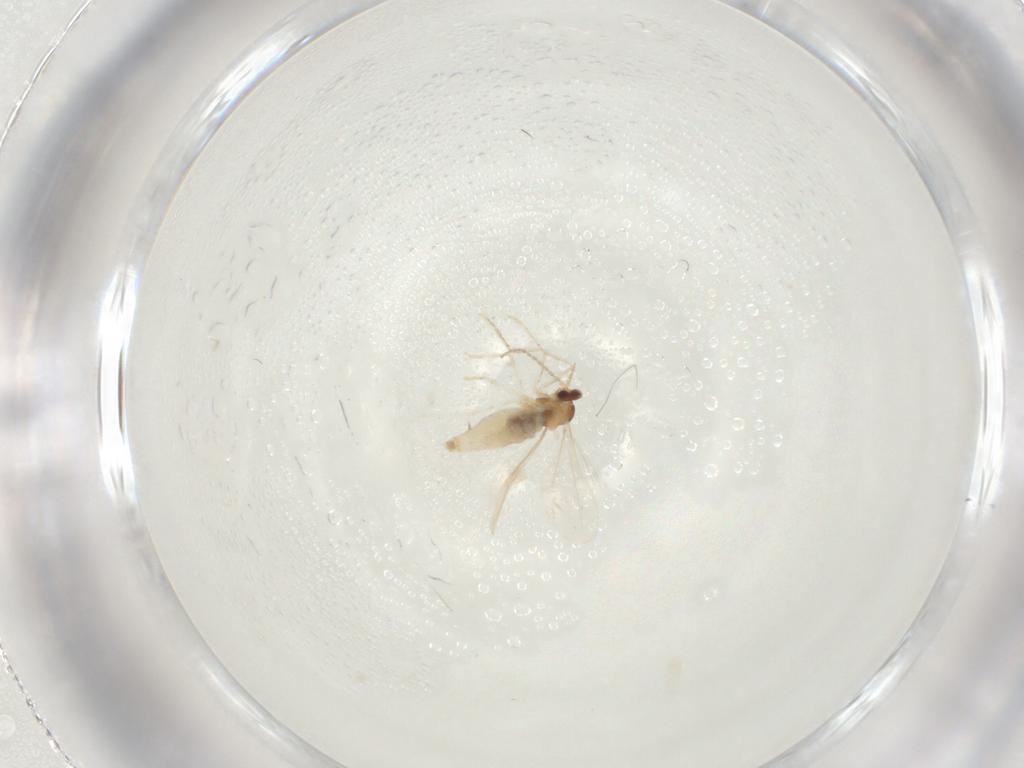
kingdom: Animalia
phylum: Arthropoda
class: Insecta
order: Diptera
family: Cecidomyiidae
